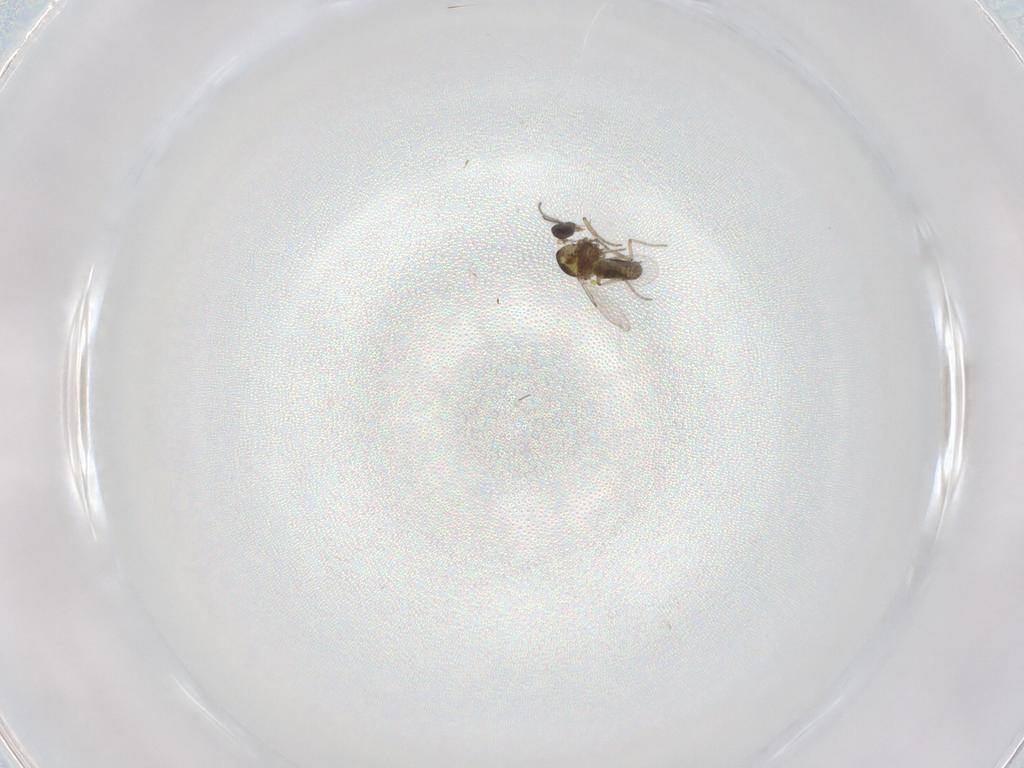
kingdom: Animalia
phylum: Arthropoda
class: Insecta
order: Diptera
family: Ceratopogonidae
